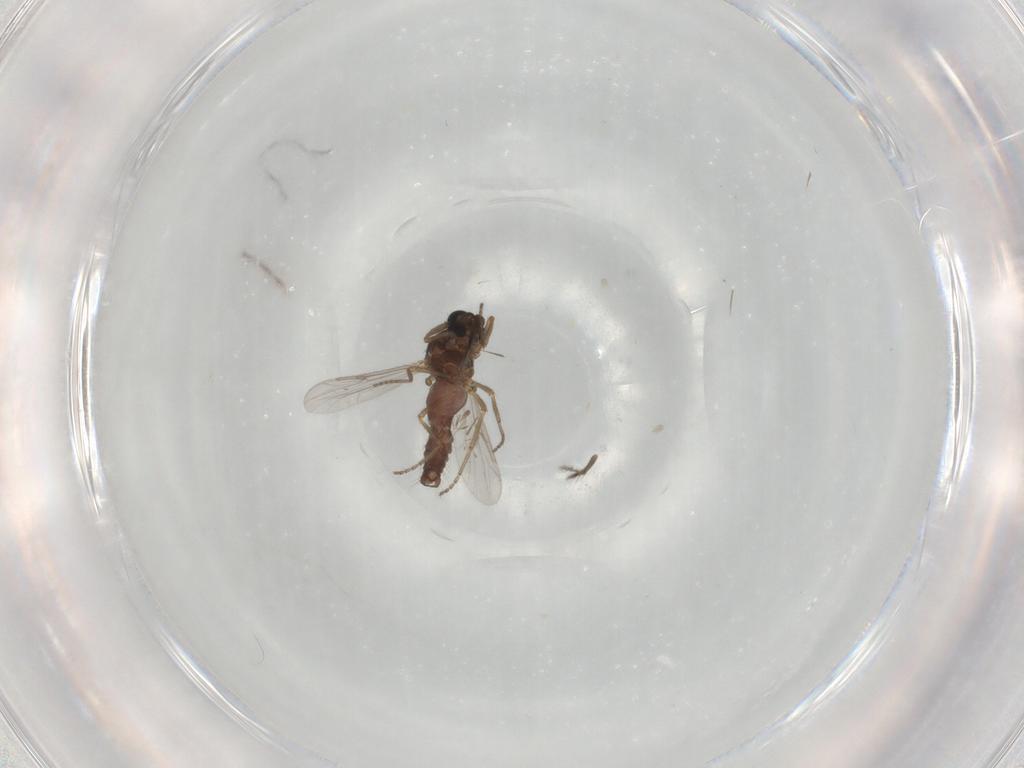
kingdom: Animalia
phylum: Arthropoda
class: Insecta
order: Diptera
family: Ceratopogonidae
